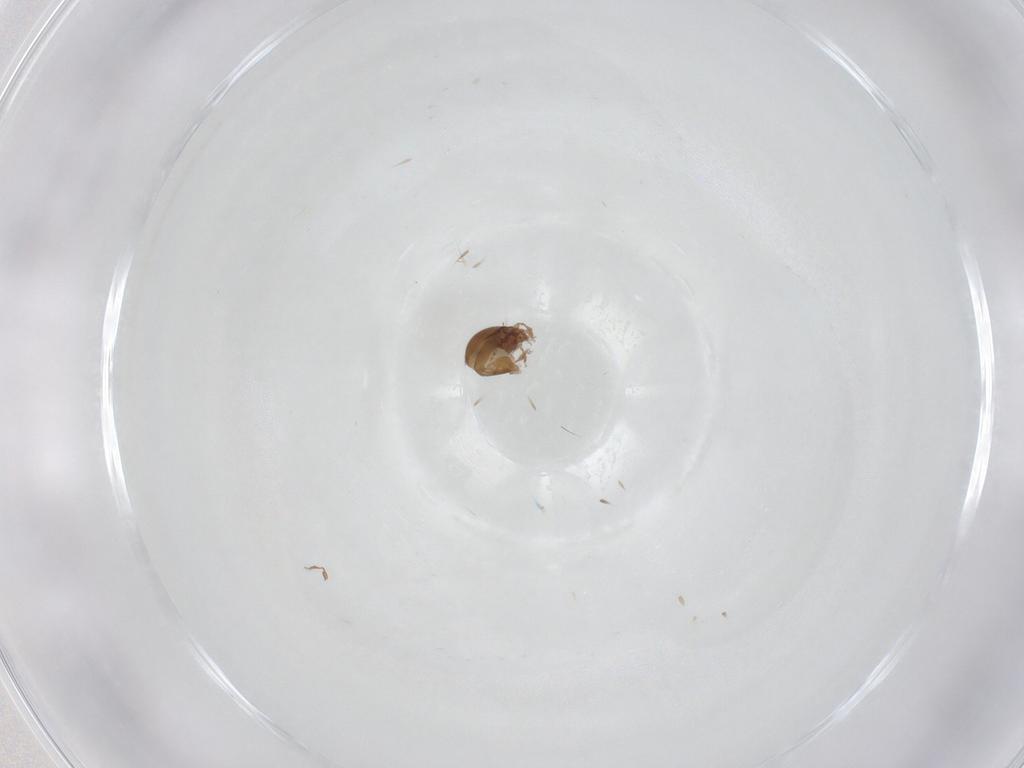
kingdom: Animalia
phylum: Arthropoda
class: Arachnida
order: Trombidiformes
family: Eriophyidae
